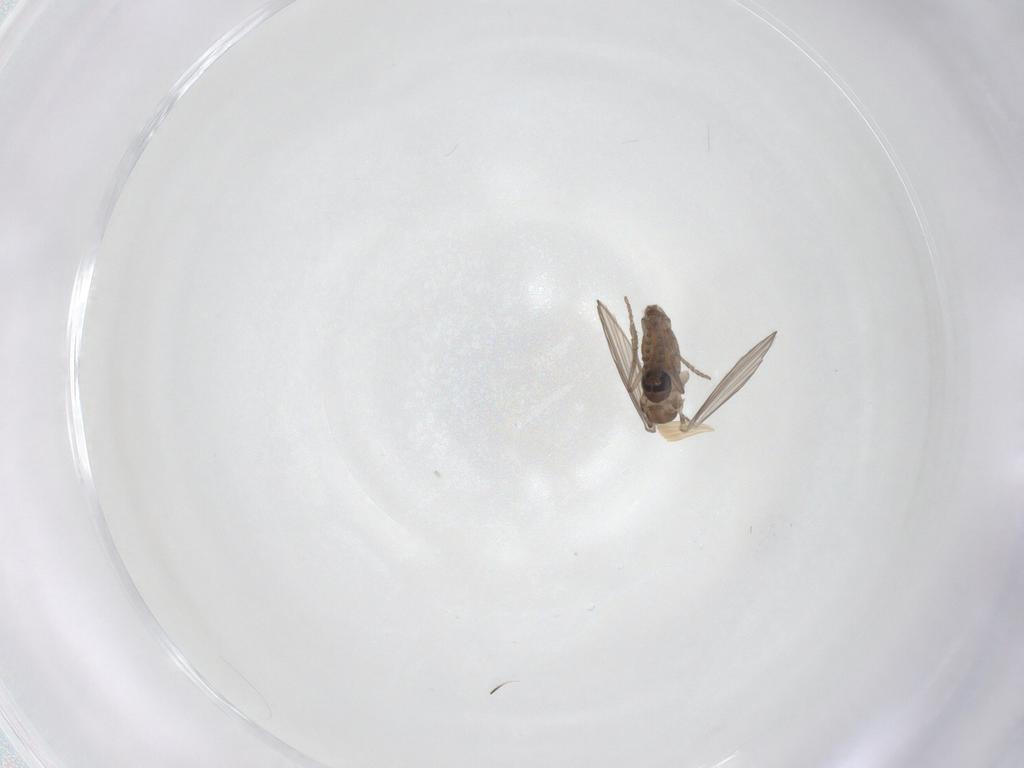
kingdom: Animalia
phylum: Arthropoda
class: Insecta
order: Diptera
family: Psychodidae
